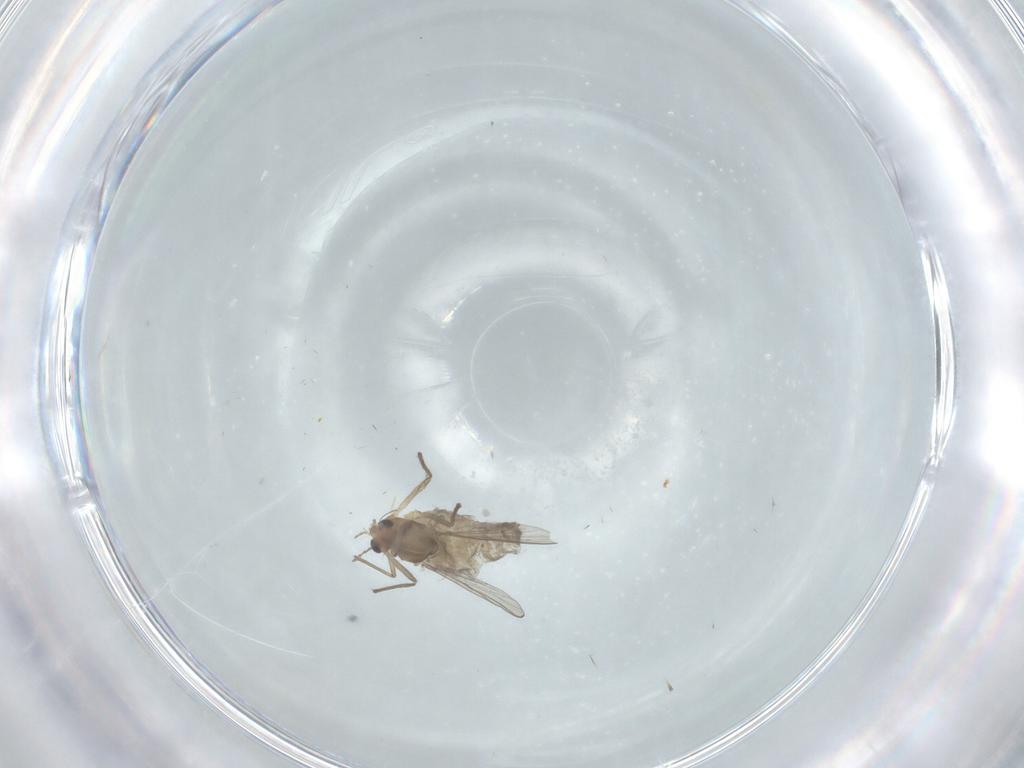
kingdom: Animalia
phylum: Arthropoda
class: Insecta
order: Diptera
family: Chironomidae
